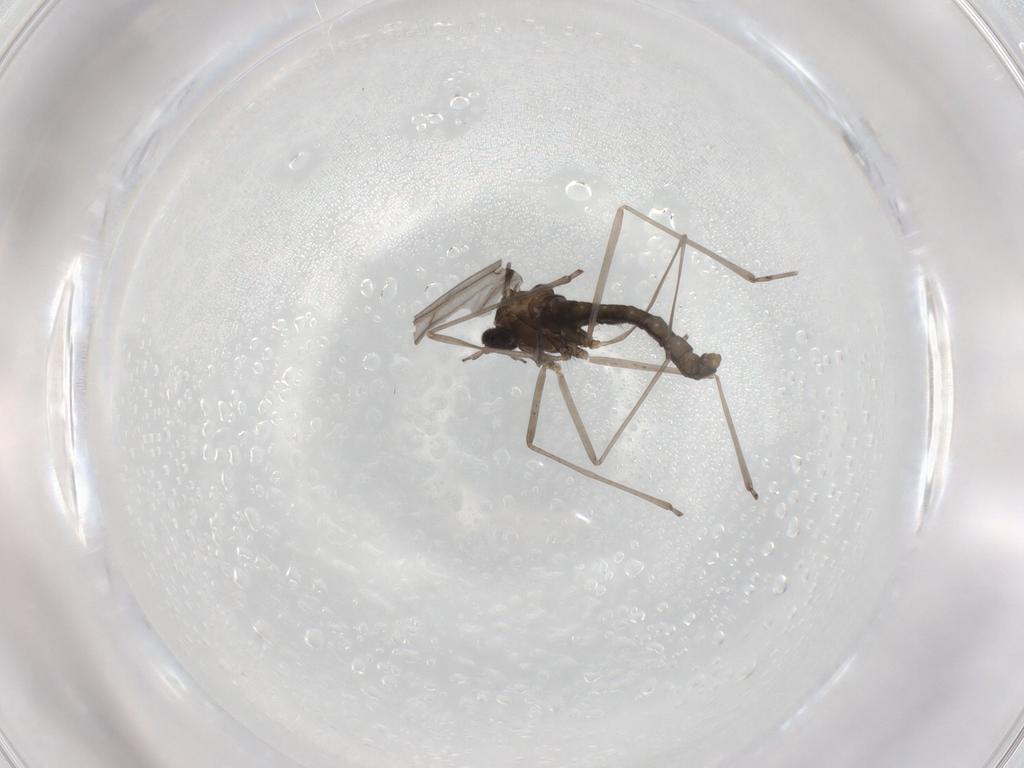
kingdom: Animalia
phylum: Arthropoda
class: Insecta
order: Diptera
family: Cecidomyiidae
